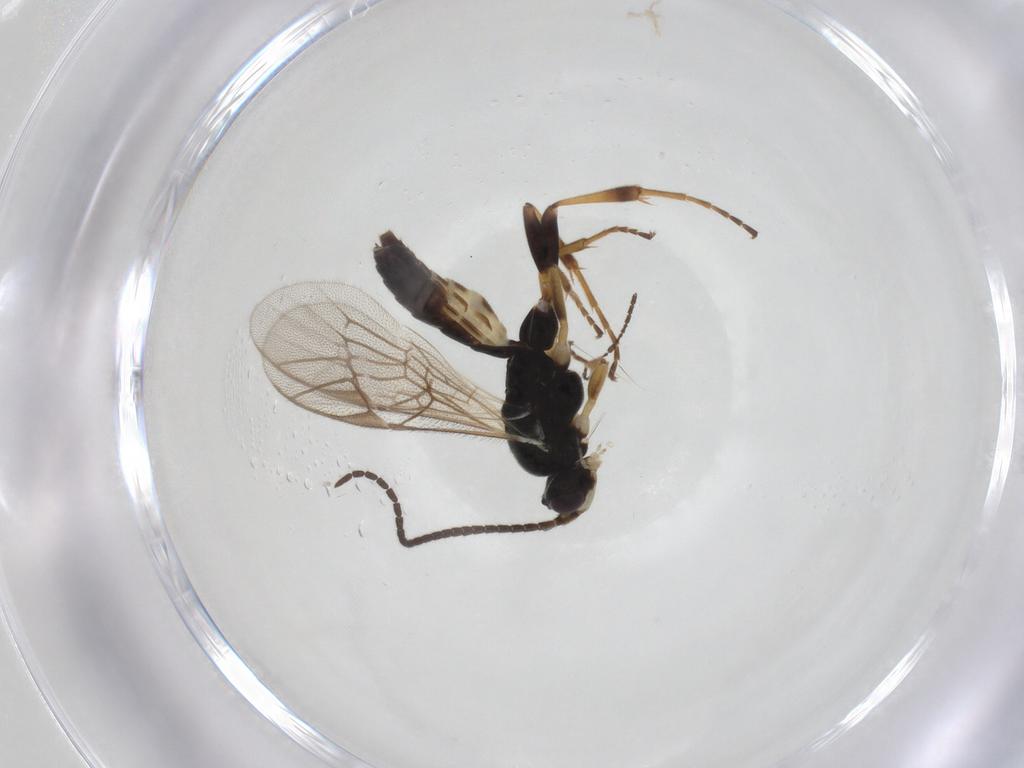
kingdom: Animalia
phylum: Arthropoda
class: Insecta
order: Hymenoptera
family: Ichneumonidae
